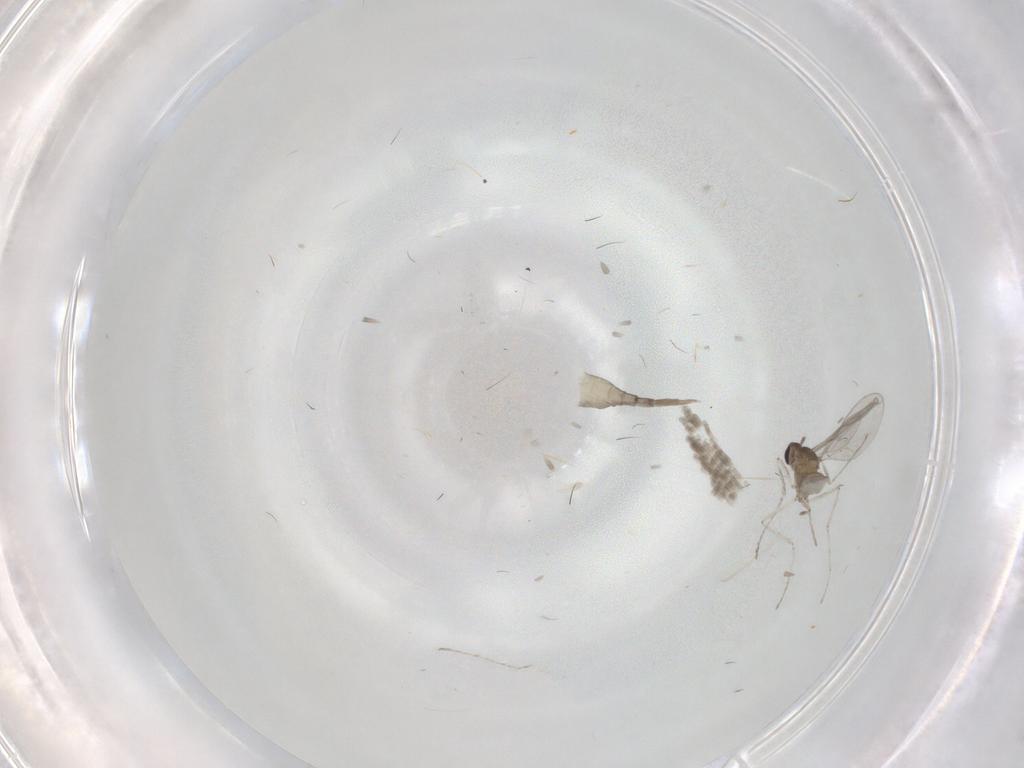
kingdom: Animalia
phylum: Arthropoda
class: Insecta
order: Diptera
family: Cecidomyiidae
